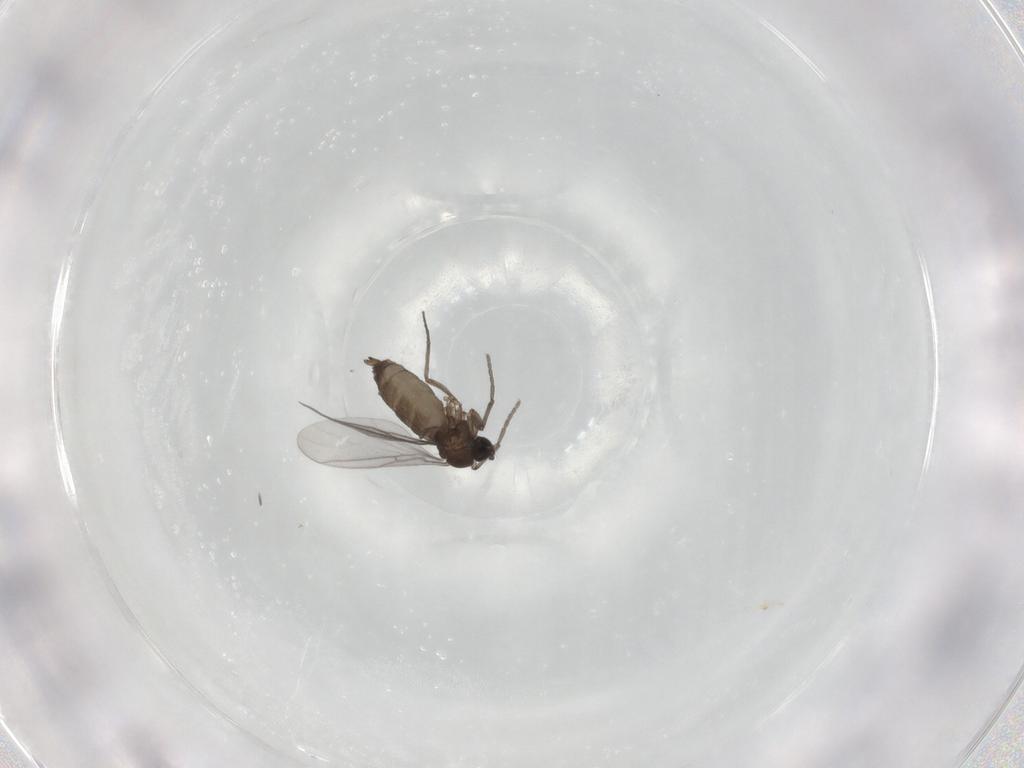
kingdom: Animalia
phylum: Arthropoda
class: Insecta
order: Diptera
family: Sciaridae
